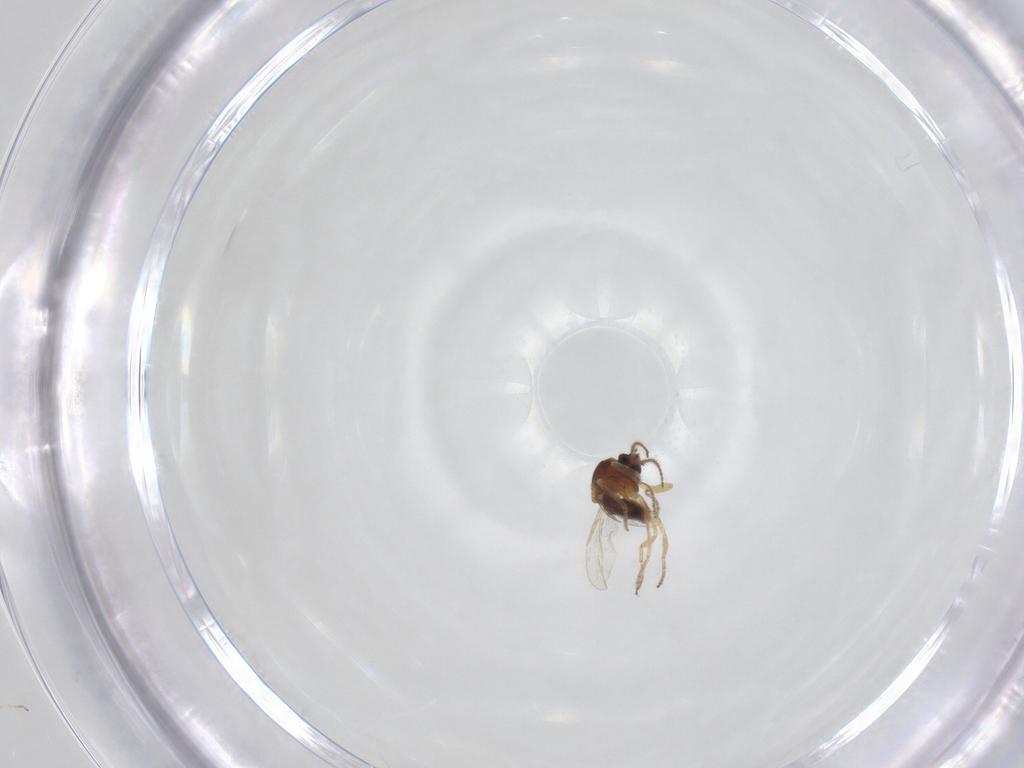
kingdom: Animalia
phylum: Arthropoda
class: Insecta
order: Diptera
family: Ceratopogonidae
